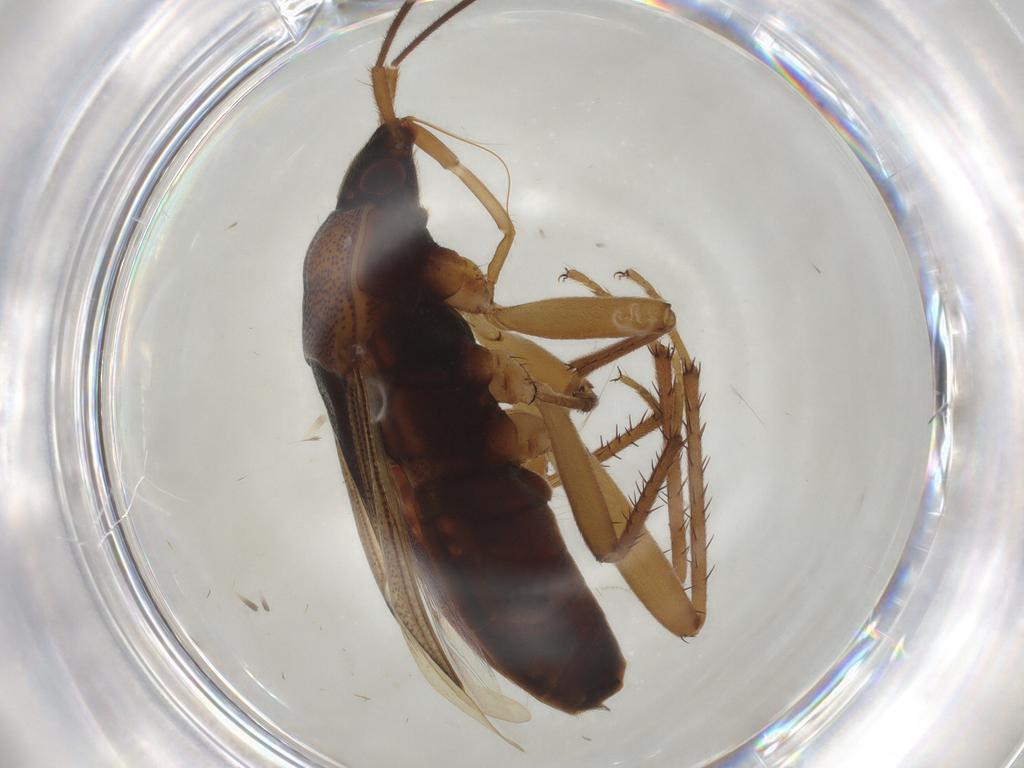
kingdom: Animalia
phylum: Arthropoda
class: Insecta
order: Hemiptera
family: Rhyparochromidae
